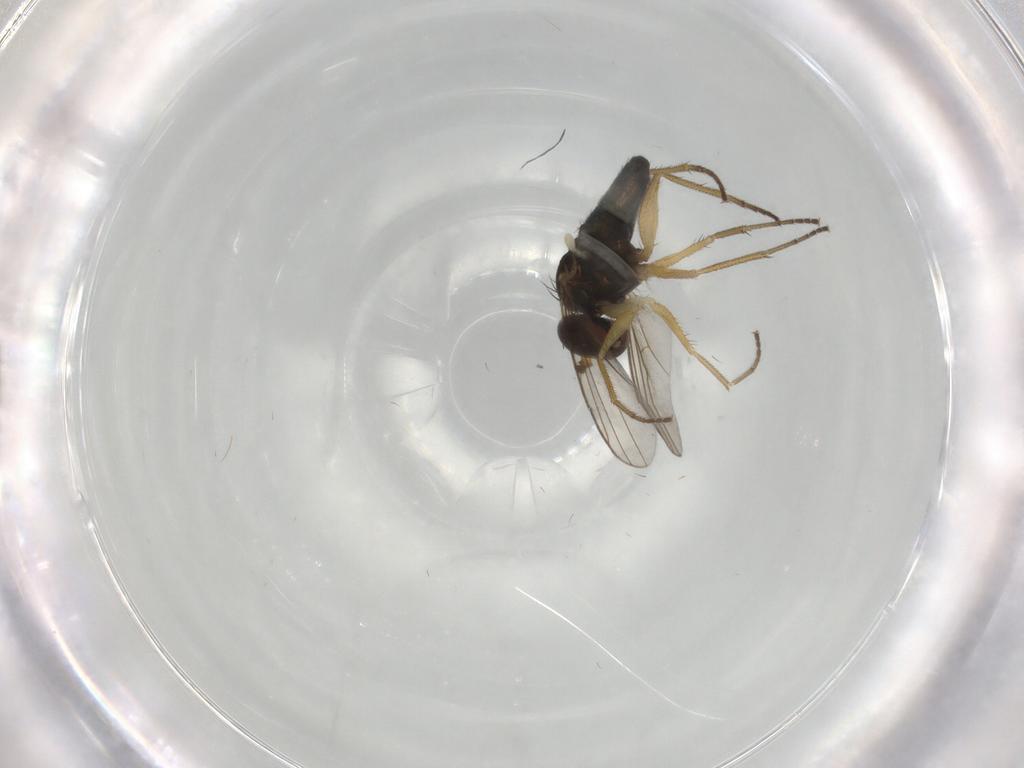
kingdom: Animalia
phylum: Arthropoda
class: Insecta
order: Diptera
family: Dolichopodidae
